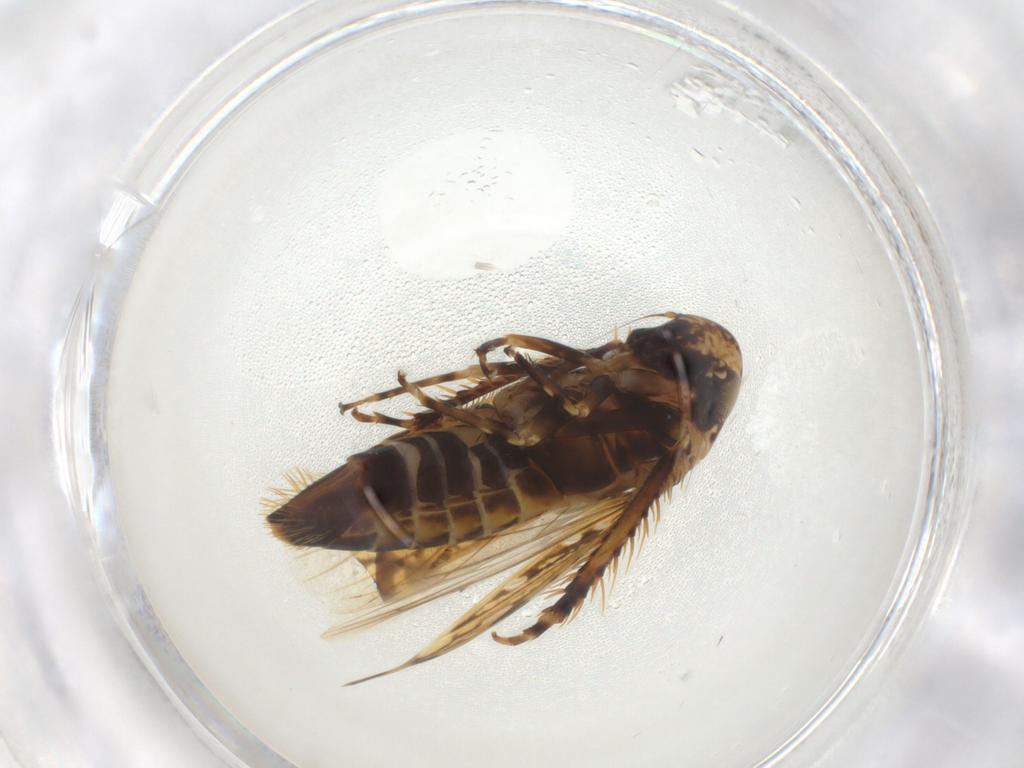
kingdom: Animalia
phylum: Arthropoda
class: Insecta
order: Hemiptera
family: Cicadellidae
